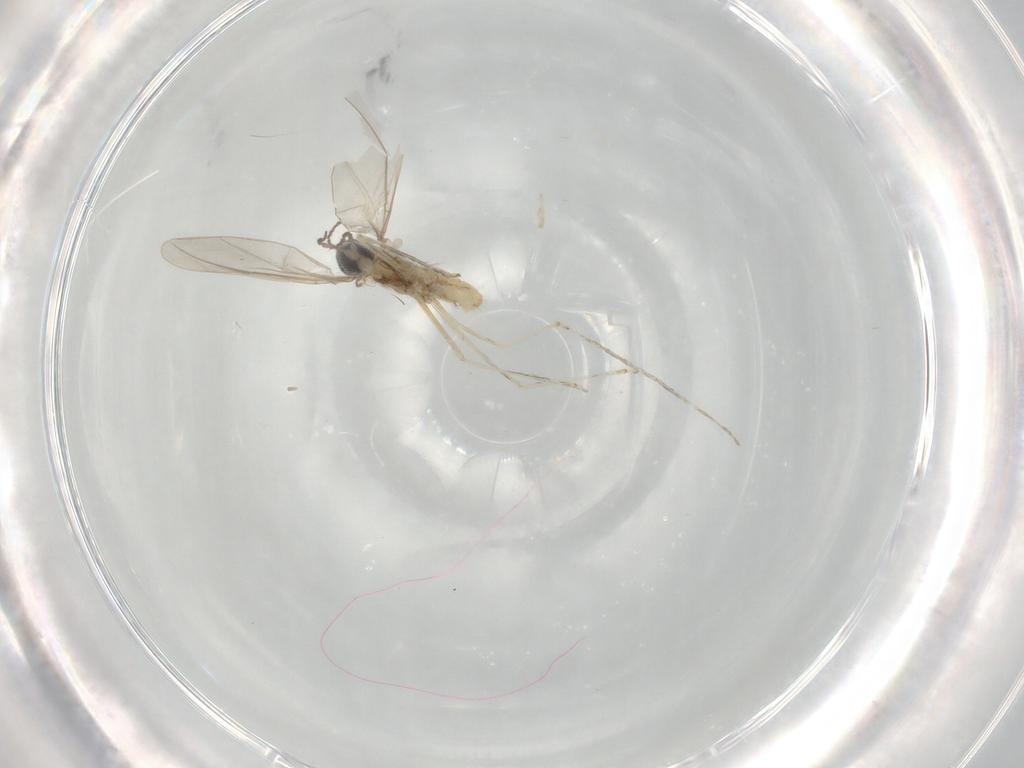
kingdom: Animalia
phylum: Arthropoda
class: Insecta
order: Diptera
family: Cecidomyiidae
